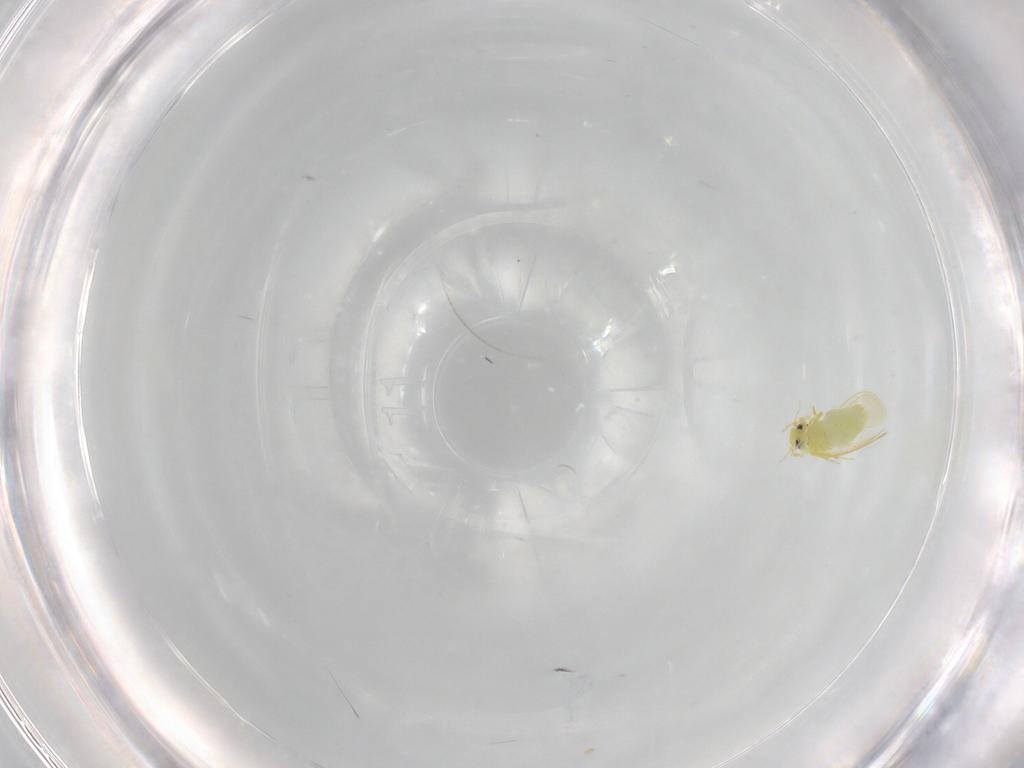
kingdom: Animalia
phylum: Arthropoda
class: Insecta
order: Hemiptera
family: Aleyrodidae
